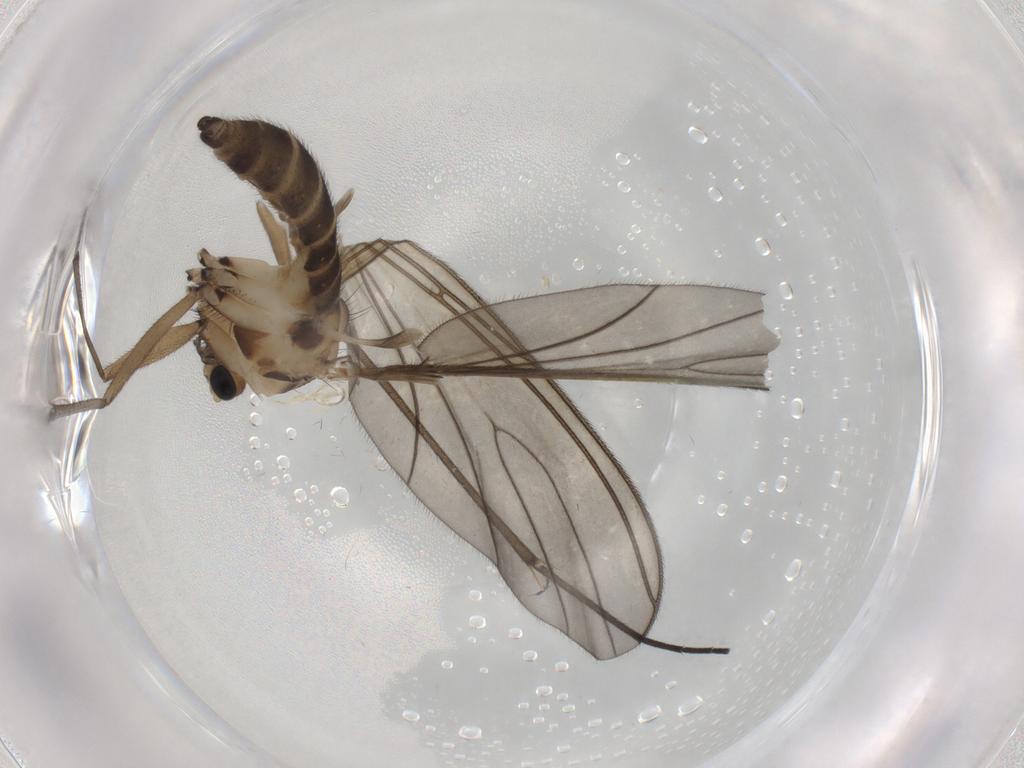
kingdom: Animalia
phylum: Arthropoda
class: Insecta
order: Diptera
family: Sciaridae
